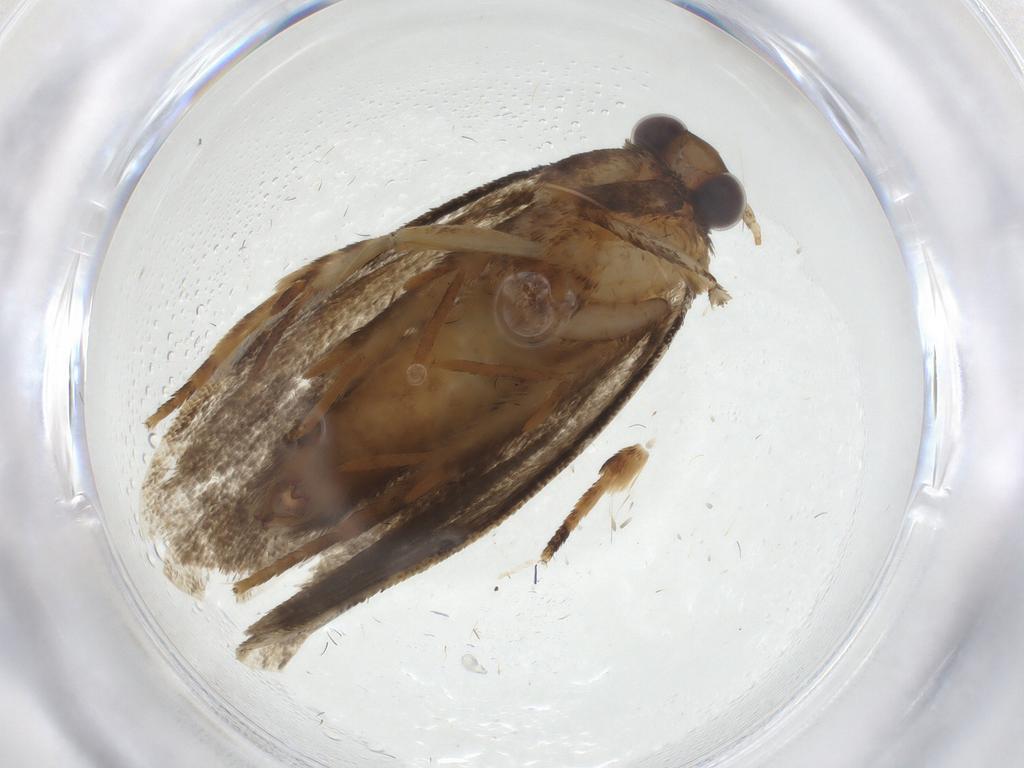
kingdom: Animalia
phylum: Arthropoda
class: Insecta
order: Lepidoptera
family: Tineidae
